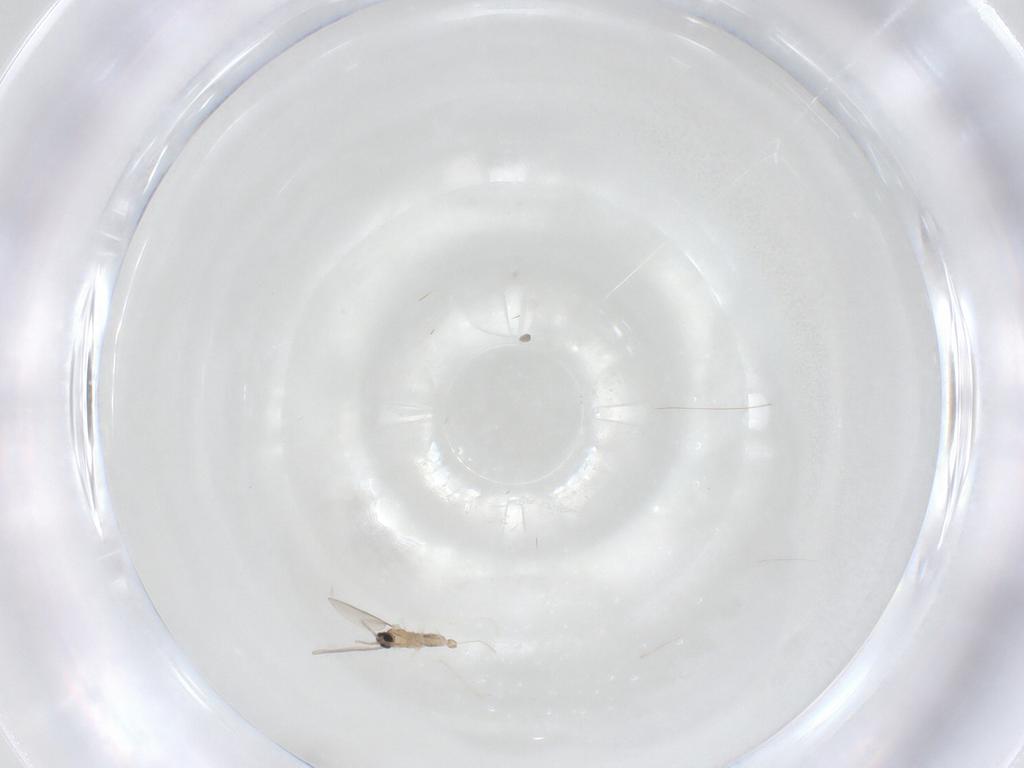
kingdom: Animalia
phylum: Arthropoda
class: Insecta
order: Diptera
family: Cecidomyiidae
